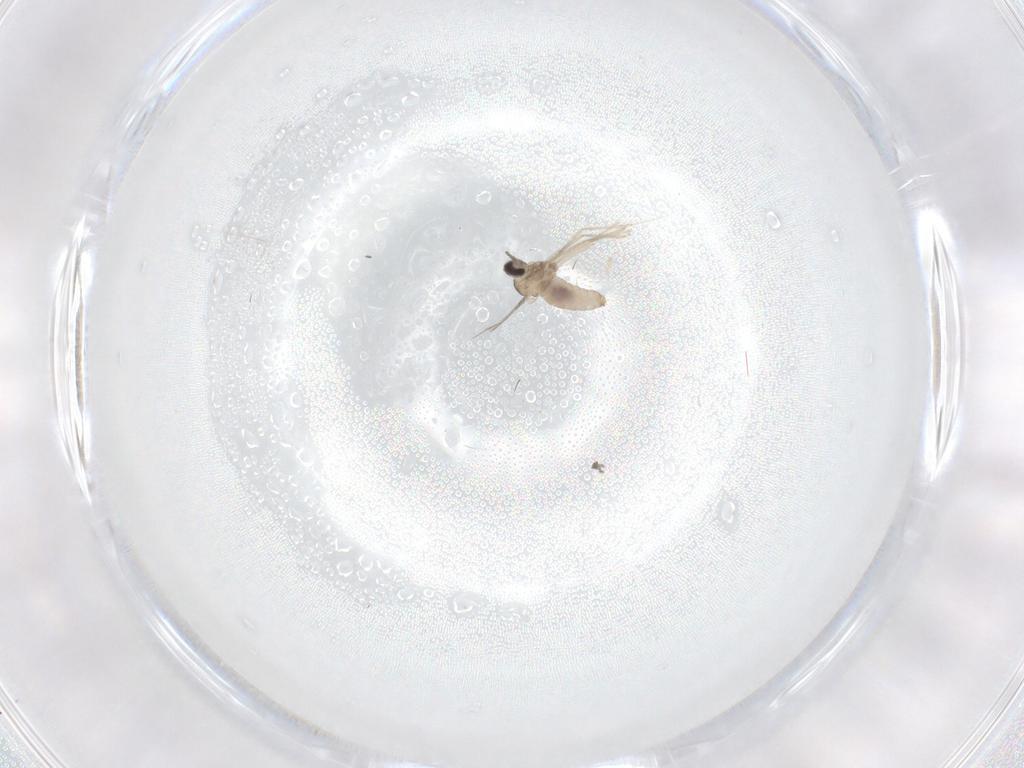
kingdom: Animalia
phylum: Arthropoda
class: Insecta
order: Diptera
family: Cecidomyiidae
